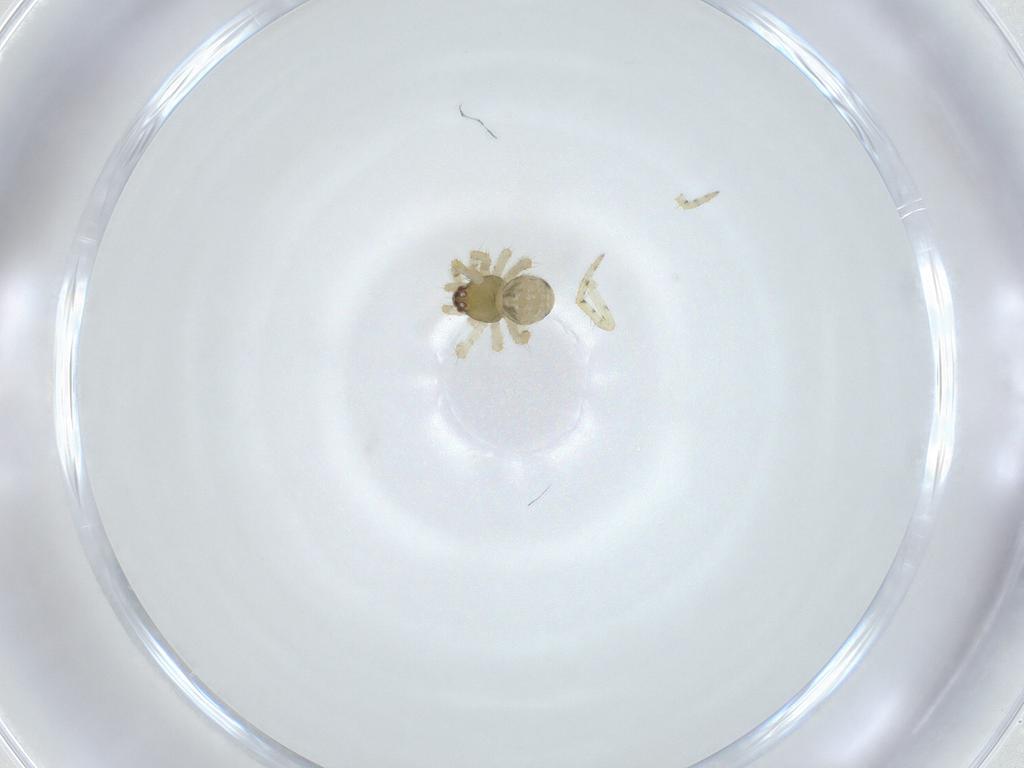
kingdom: Animalia
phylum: Arthropoda
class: Arachnida
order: Araneae
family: Theridiidae
